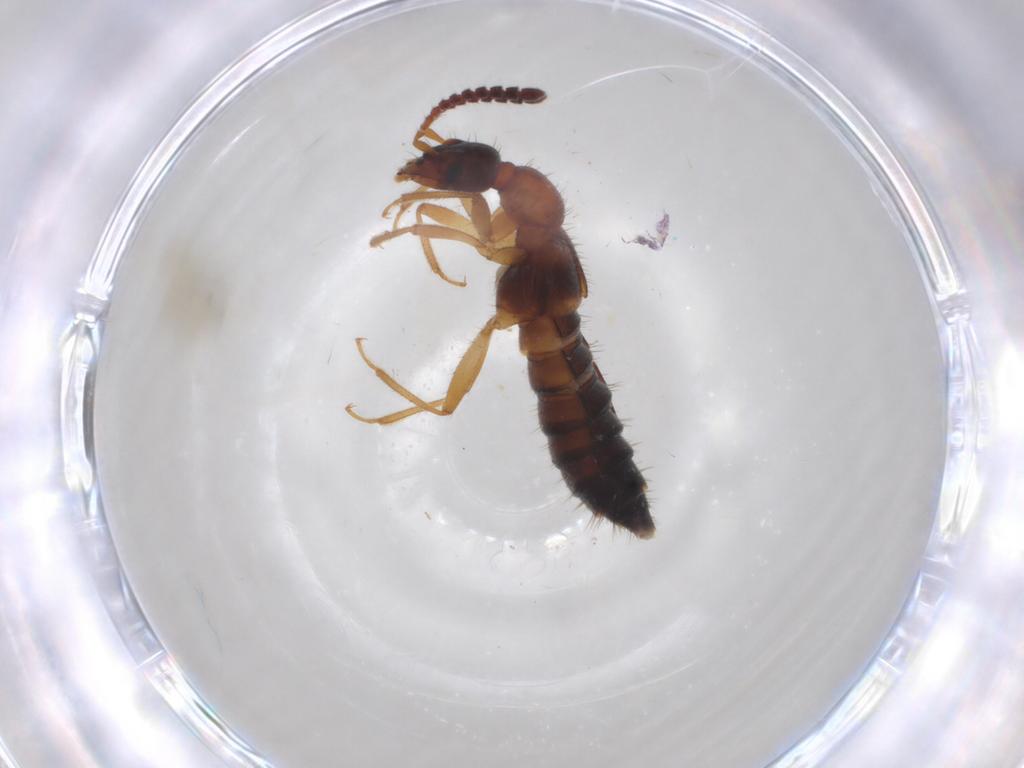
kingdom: Animalia
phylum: Arthropoda
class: Insecta
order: Coleoptera
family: Staphylinidae
